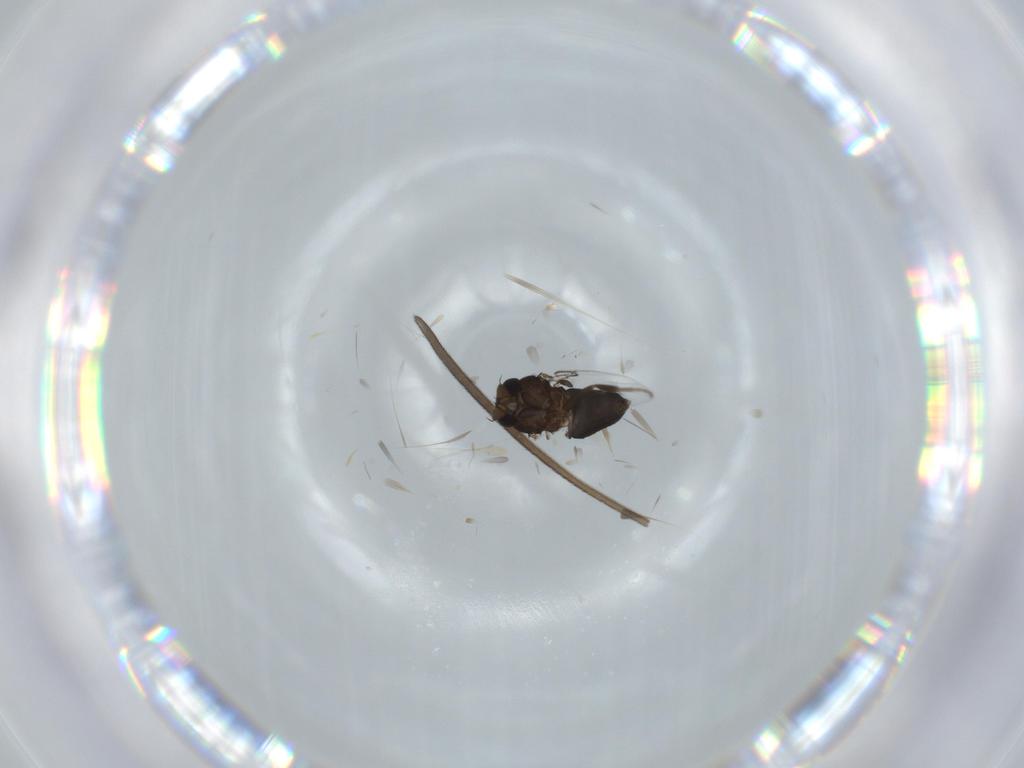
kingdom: Animalia
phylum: Arthropoda
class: Insecta
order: Diptera
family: Phoridae
